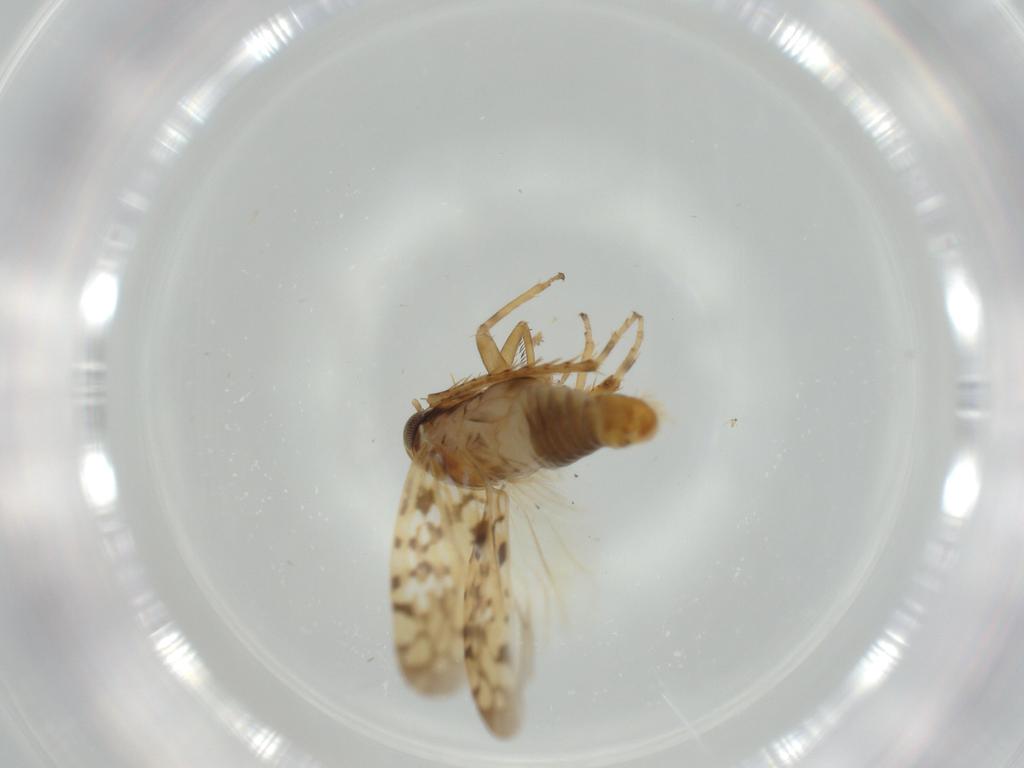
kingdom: Animalia
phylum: Arthropoda
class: Insecta
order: Hemiptera
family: Cicadellidae
